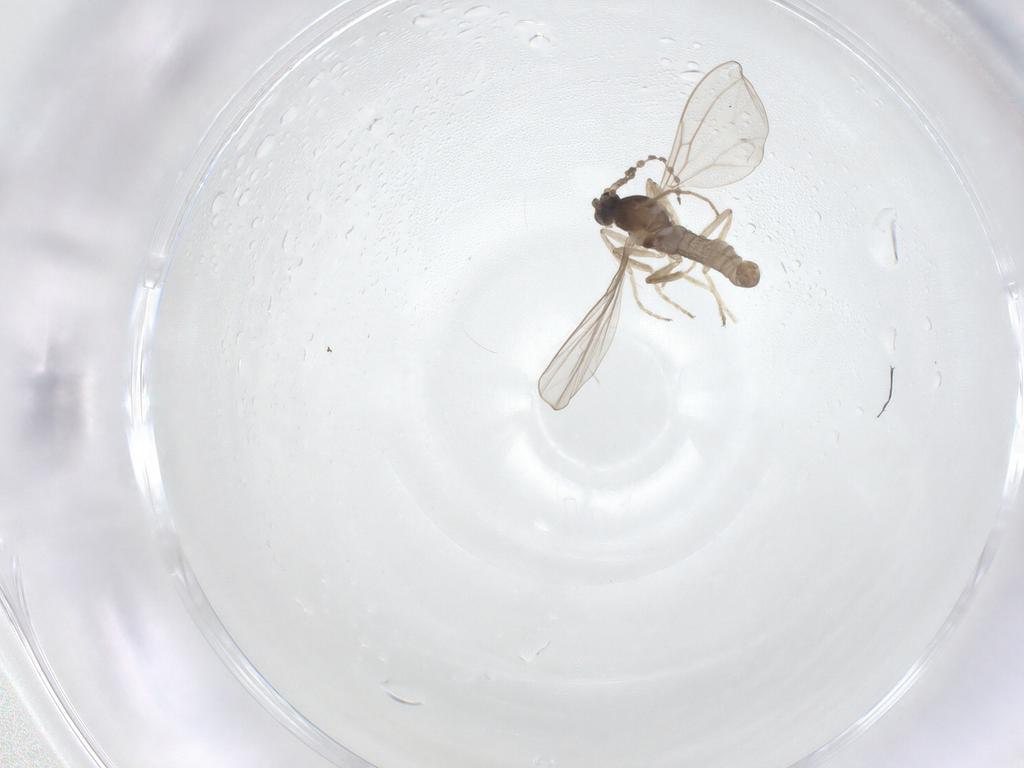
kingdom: Animalia
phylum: Arthropoda
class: Insecta
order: Diptera
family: Cecidomyiidae
